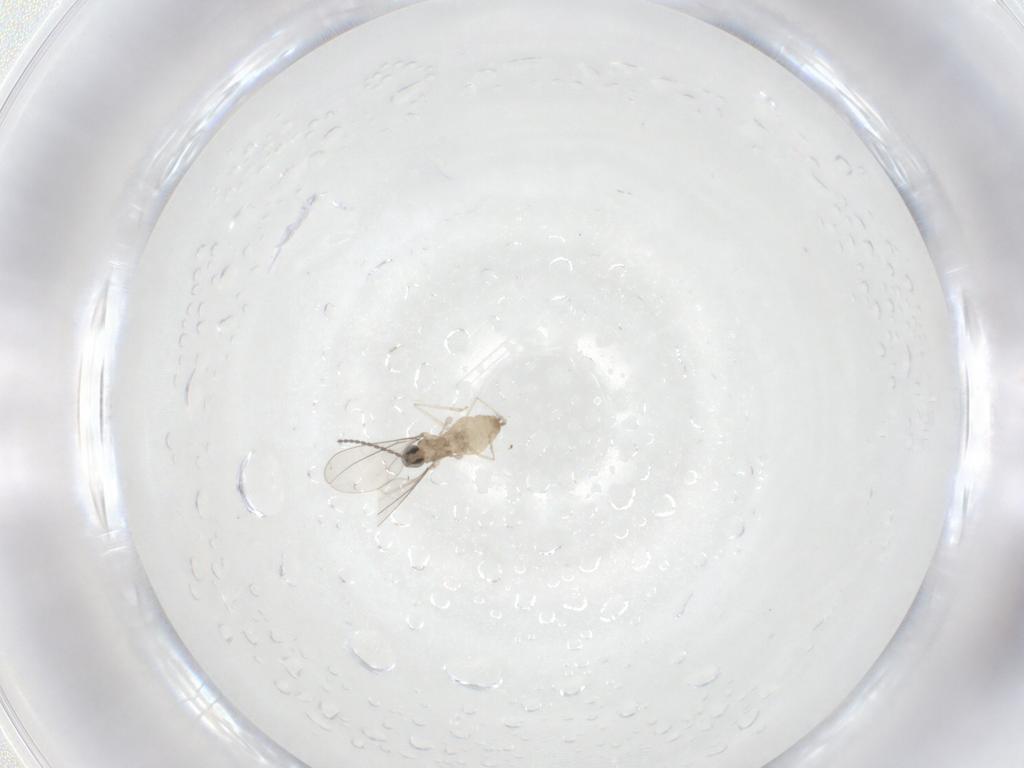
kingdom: Animalia
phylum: Arthropoda
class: Insecta
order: Diptera
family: Cecidomyiidae
